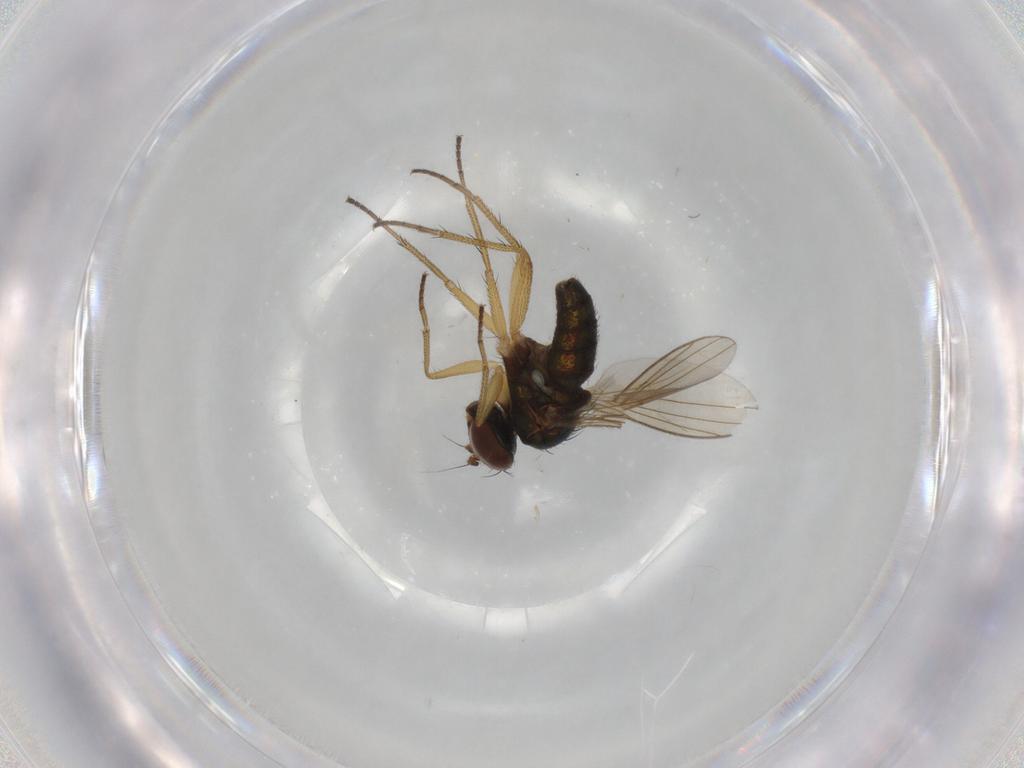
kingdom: Animalia
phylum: Arthropoda
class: Insecta
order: Diptera
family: Dolichopodidae
